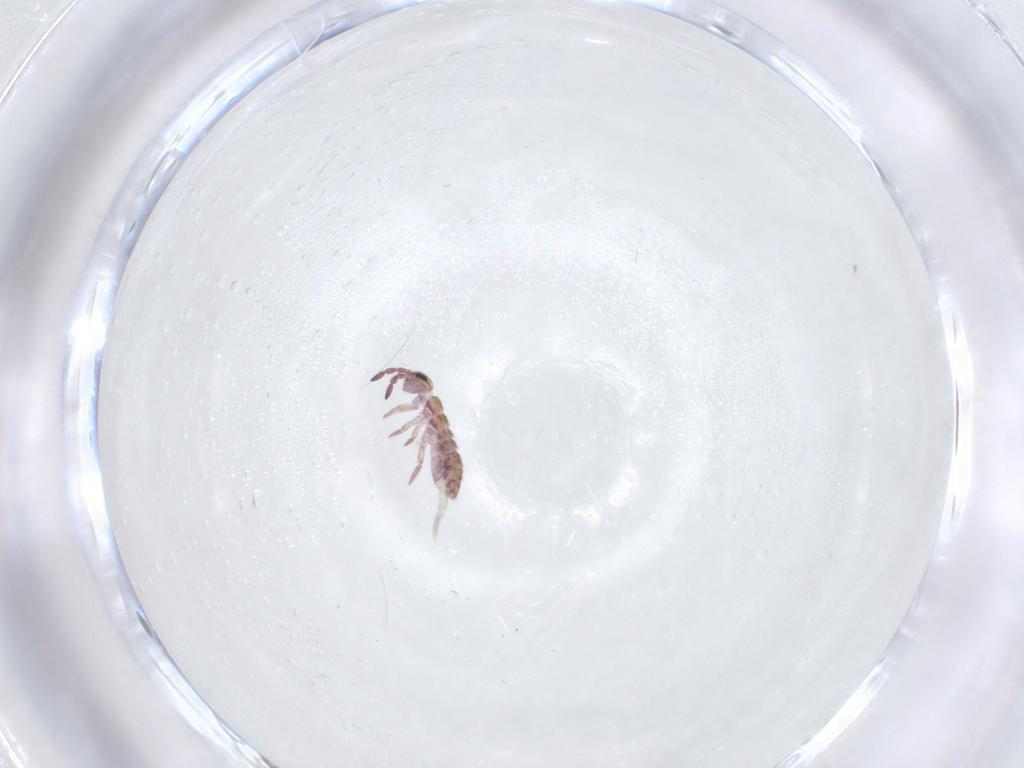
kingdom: Animalia
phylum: Arthropoda
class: Collembola
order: Entomobryomorpha
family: Isotomidae
